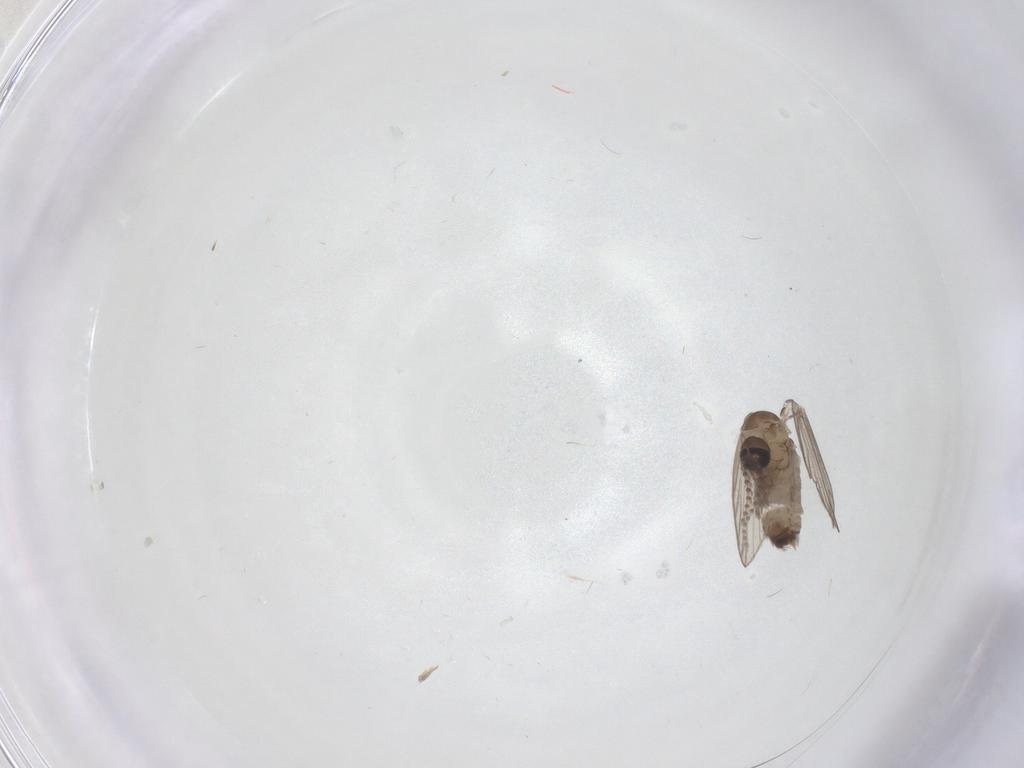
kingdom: Animalia
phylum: Arthropoda
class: Insecta
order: Diptera
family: Psychodidae
